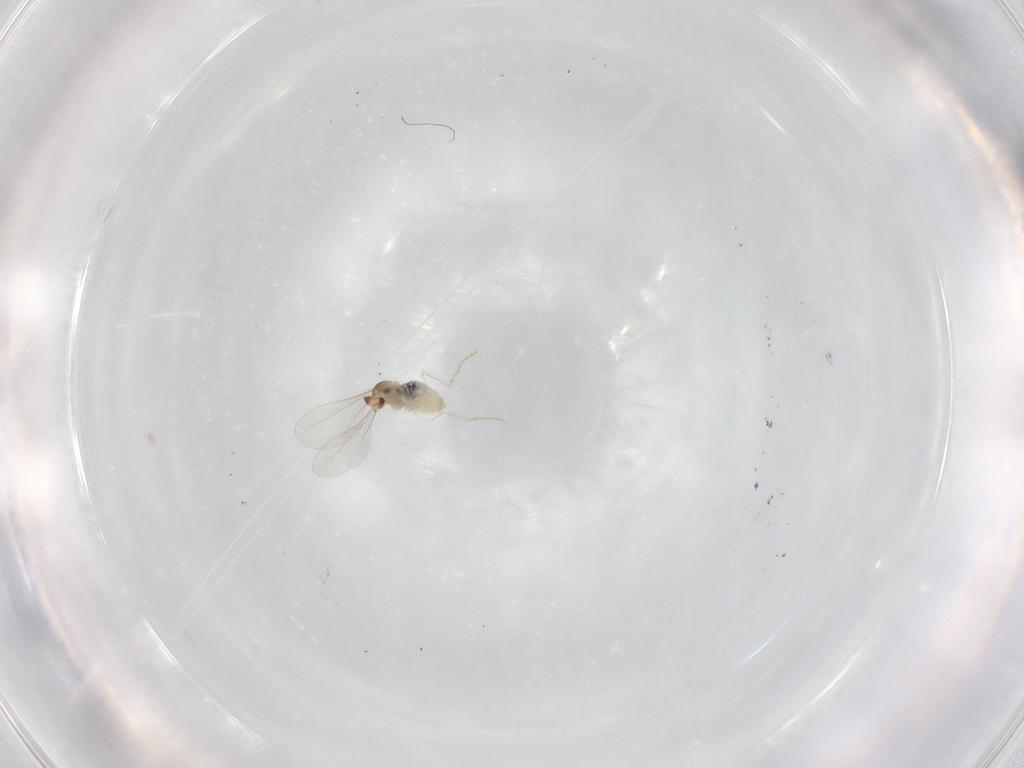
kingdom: Animalia
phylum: Arthropoda
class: Insecta
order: Diptera
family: Cecidomyiidae
